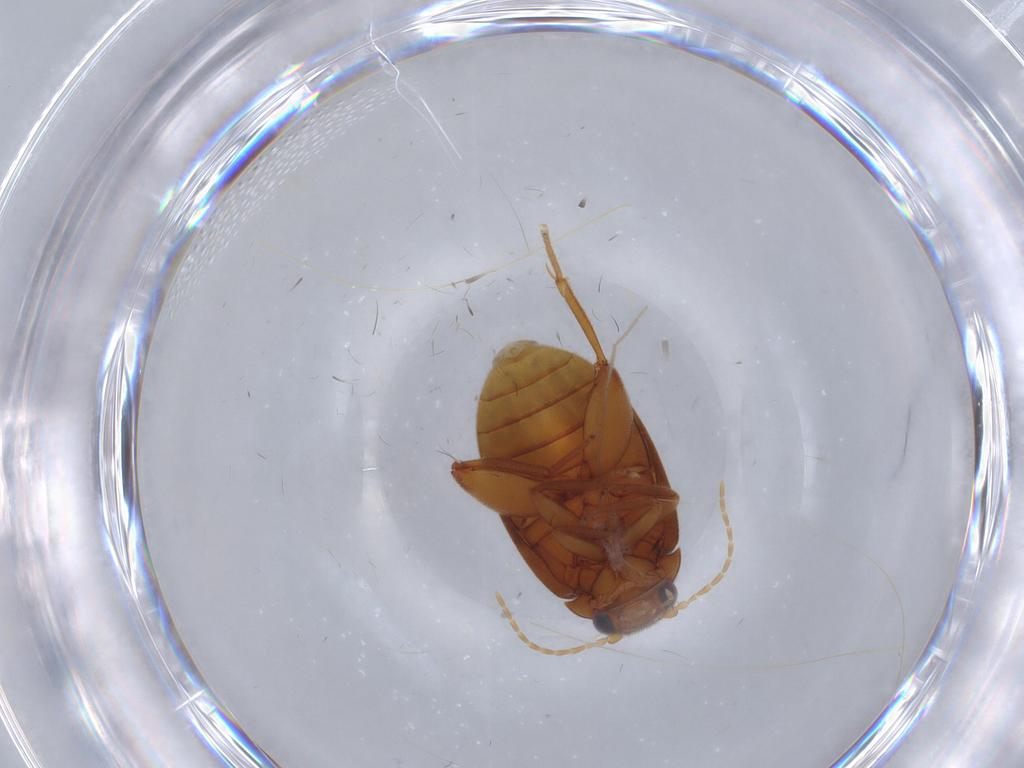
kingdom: Animalia
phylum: Arthropoda
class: Insecta
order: Coleoptera
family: Scirtidae
